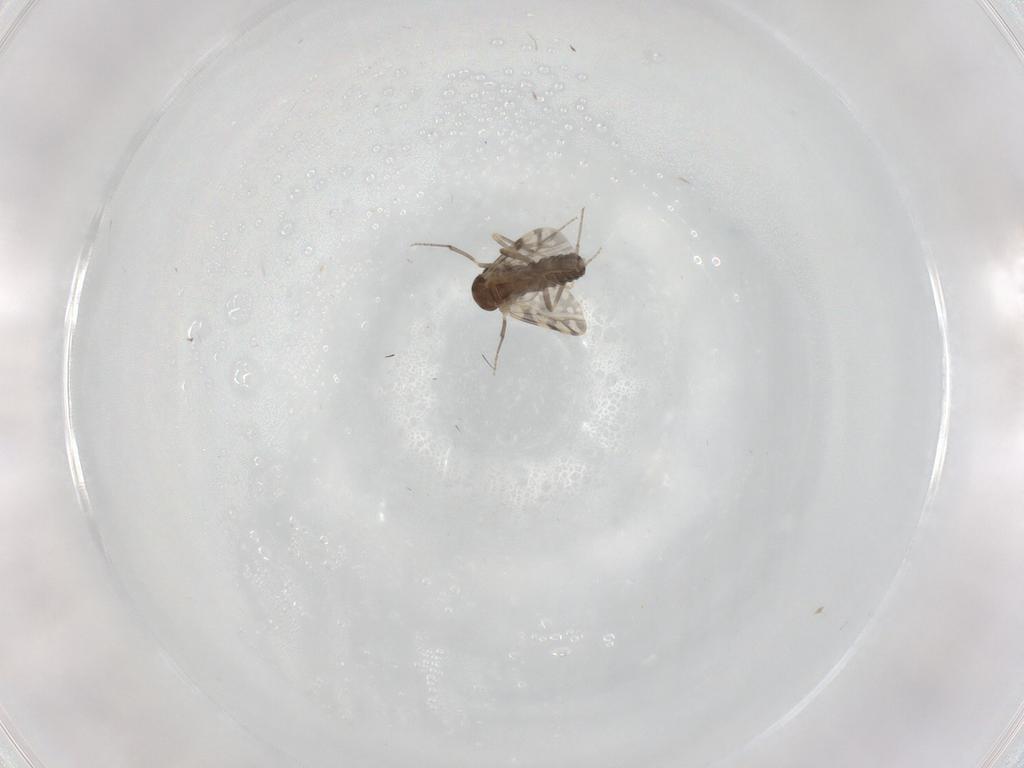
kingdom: Animalia
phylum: Arthropoda
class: Insecta
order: Diptera
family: Ceratopogonidae
